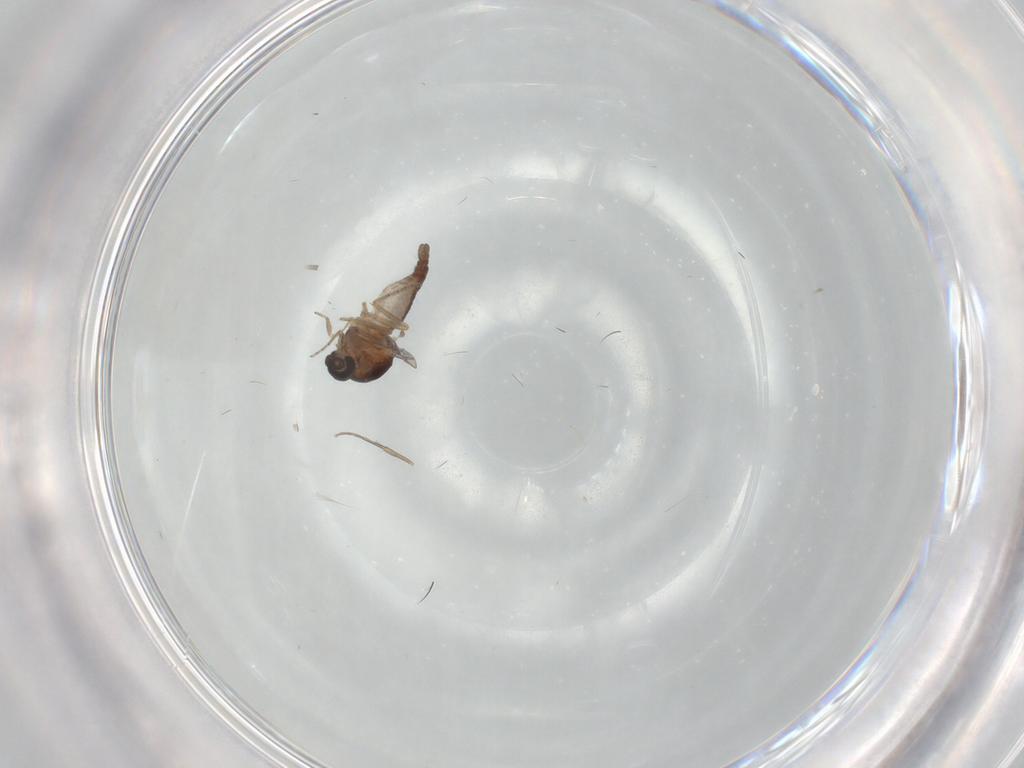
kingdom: Animalia
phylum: Arthropoda
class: Insecta
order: Diptera
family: Ceratopogonidae
